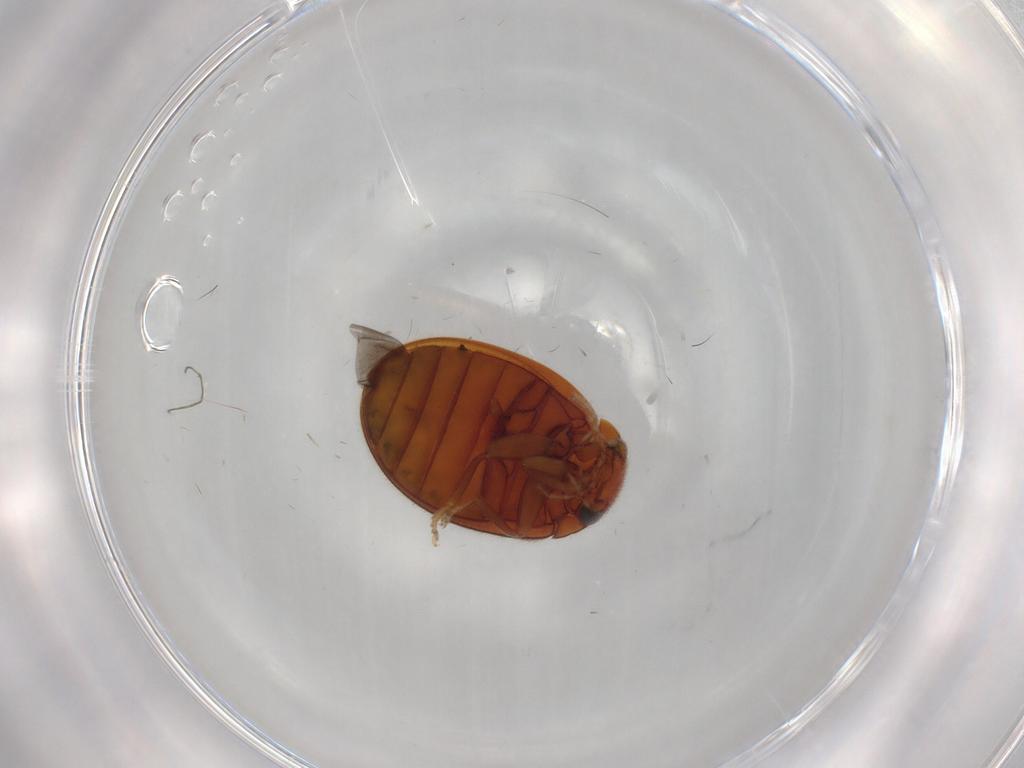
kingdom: Animalia
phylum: Arthropoda
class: Insecta
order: Coleoptera
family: Scirtidae
